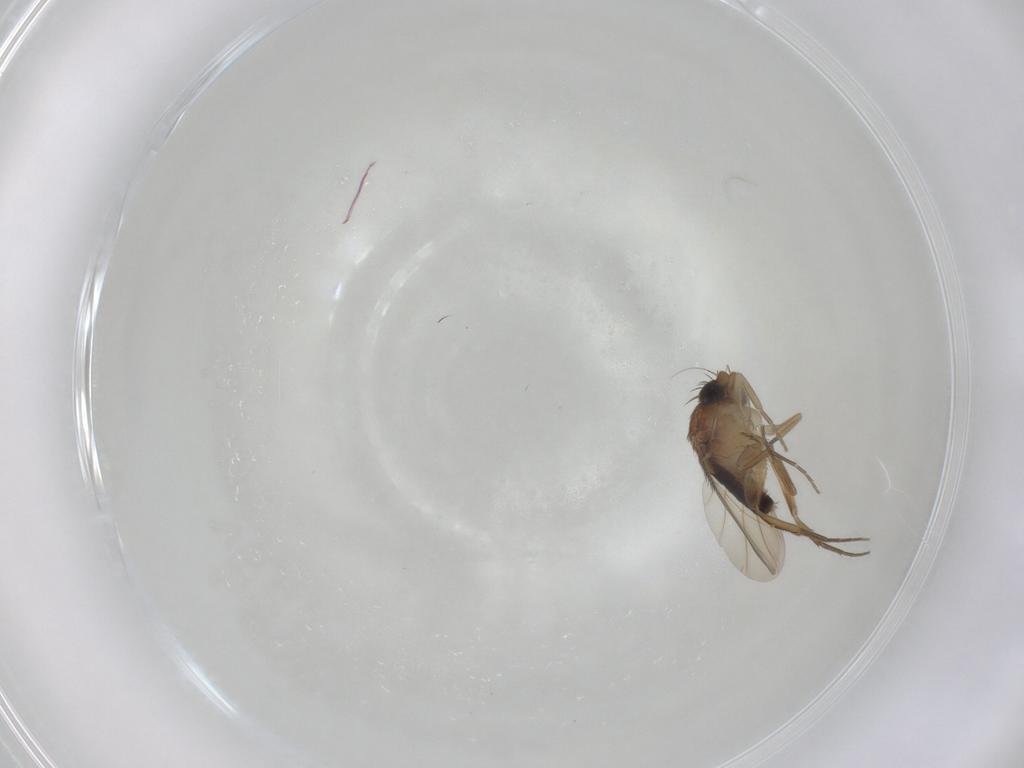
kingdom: Animalia
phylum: Arthropoda
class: Insecta
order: Diptera
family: Phoridae
